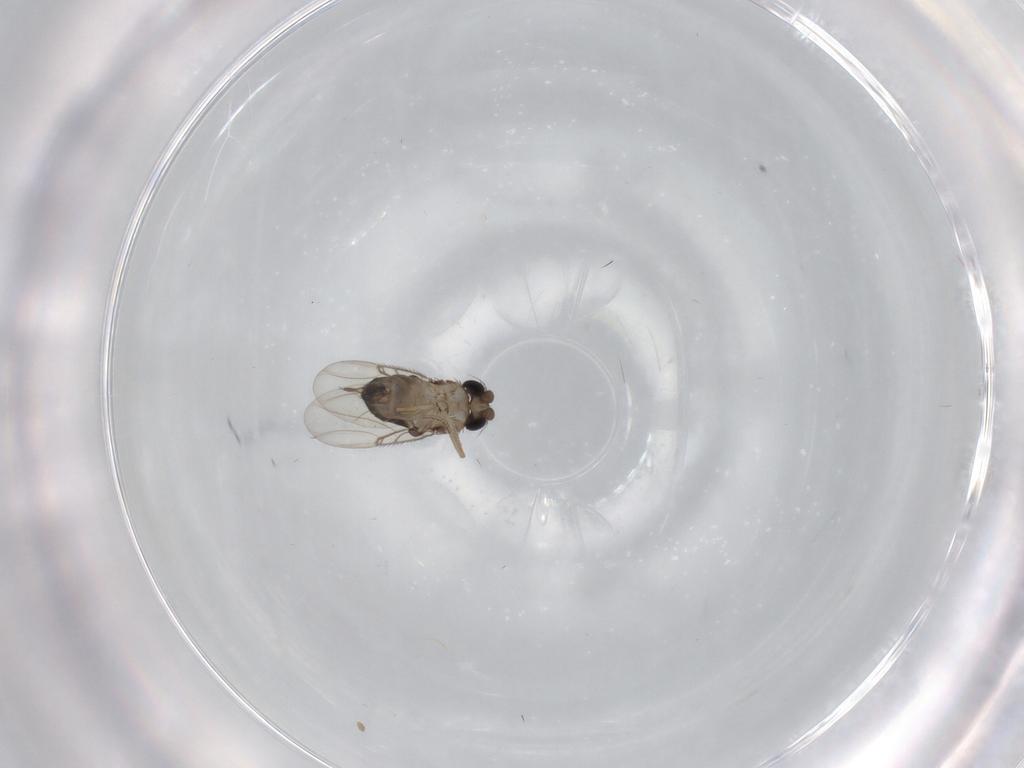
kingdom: Animalia
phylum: Arthropoda
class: Insecta
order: Diptera
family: Phoridae
